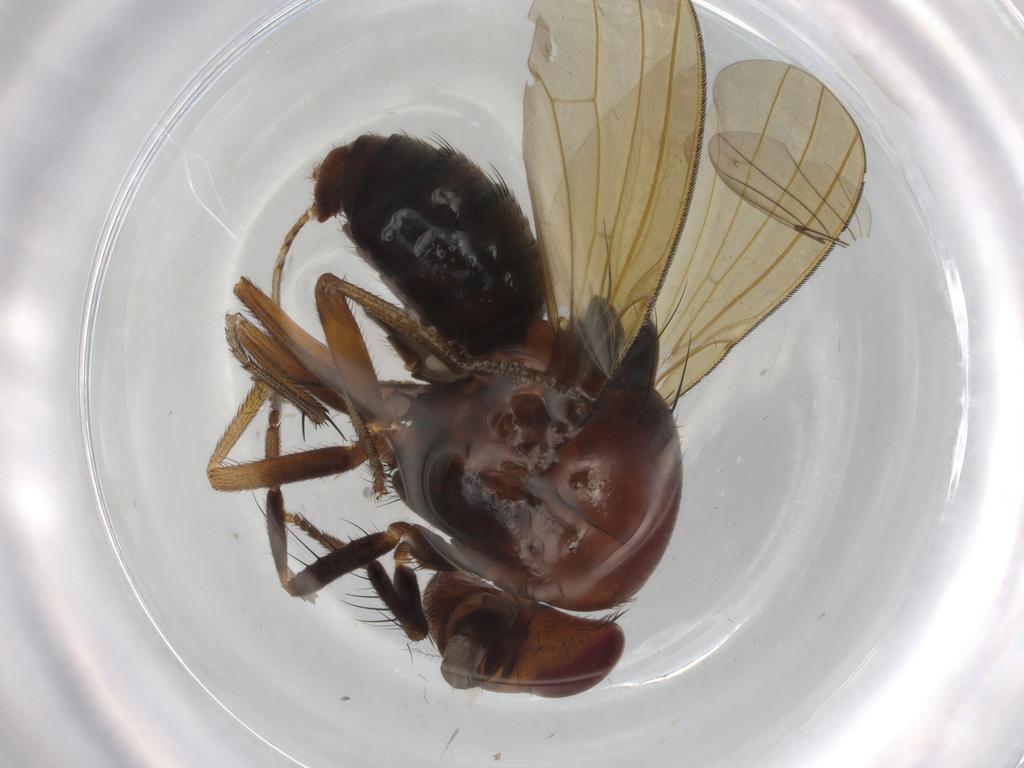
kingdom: Animalia
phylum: Arthropoda
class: Insecta
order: Diptera
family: Chironomidae
